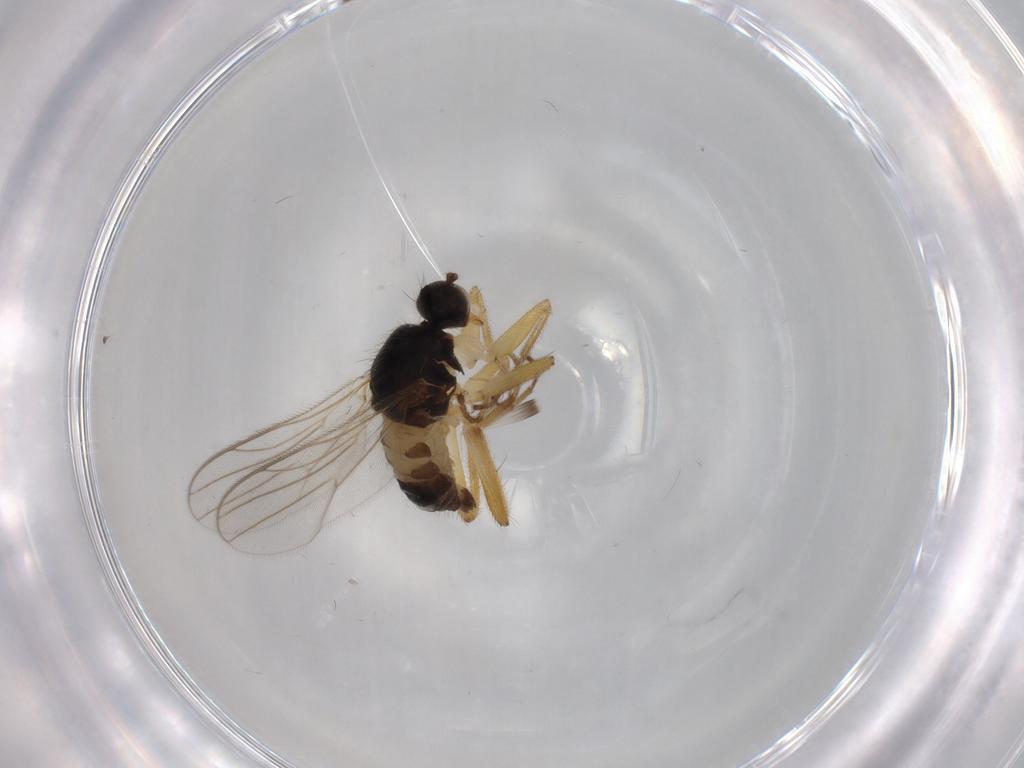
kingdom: Animalia
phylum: Arthropoda
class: Insecta
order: Diptera
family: Hybotidae
